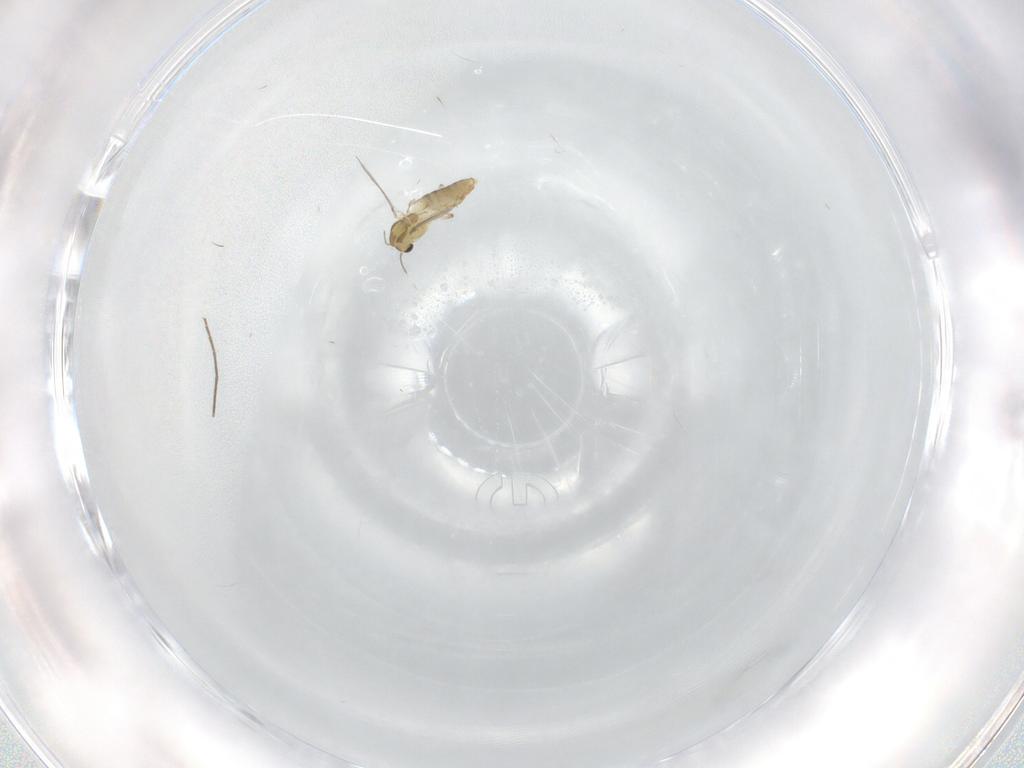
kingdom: Animalia
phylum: Arthropoda
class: Insecta
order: Diptera
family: Chironomidae
